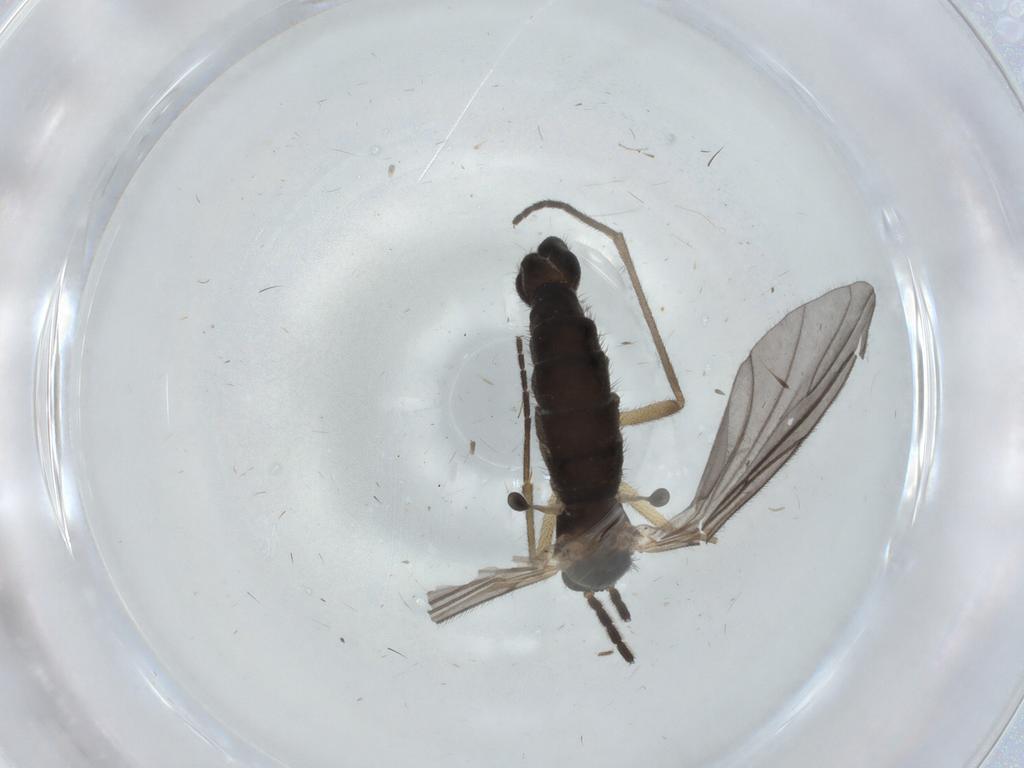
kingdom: Animalia
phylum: Arthropoda
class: Insecta
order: Diptera
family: Sciaridae
